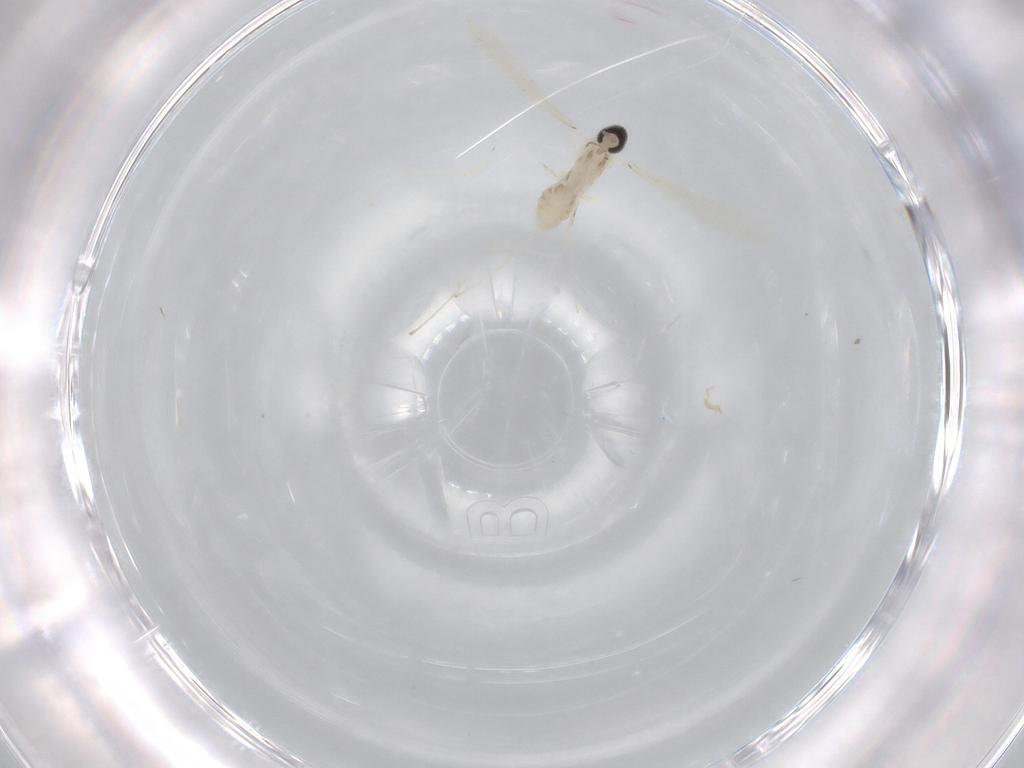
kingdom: Animalia
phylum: Arthropoda
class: Insecta
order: Diptera
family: Cecidomyiidae
